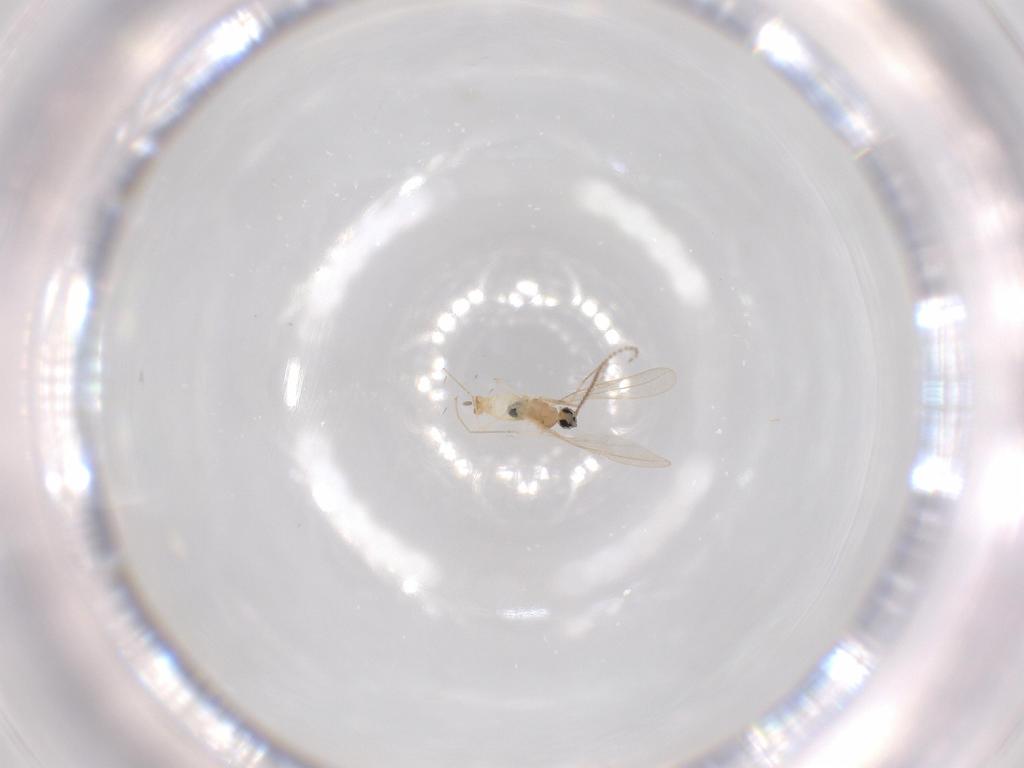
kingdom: Animalia
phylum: Arthropoda
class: Insecta
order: Diptera
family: Cecidomyiidae
